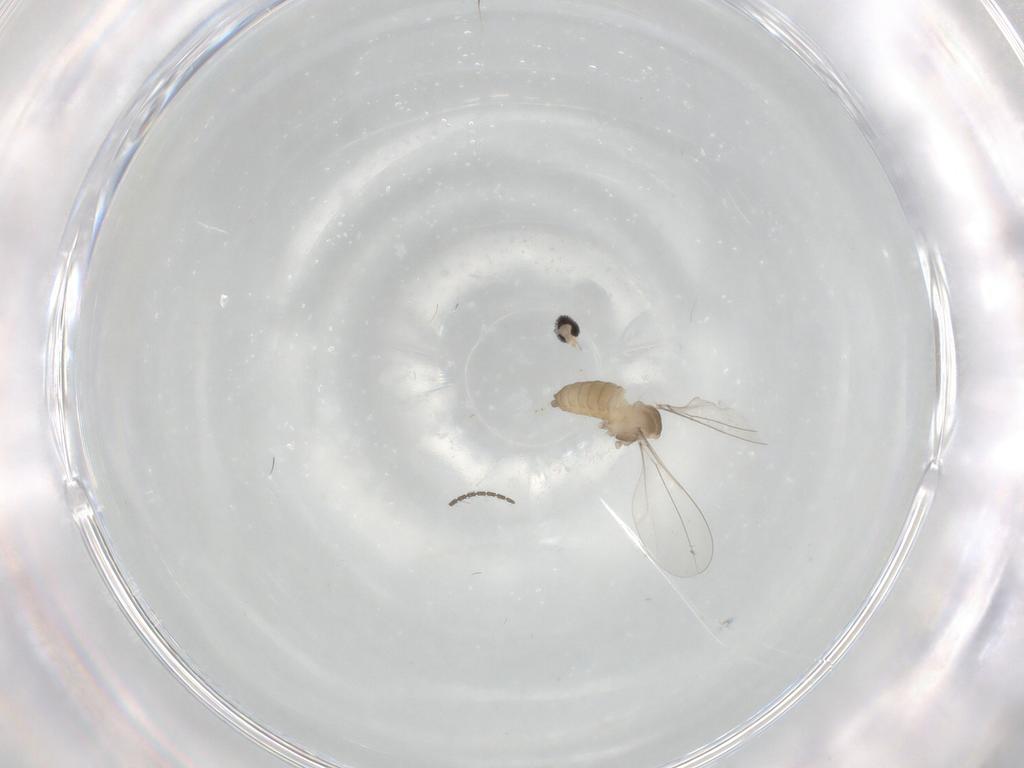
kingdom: Animalia
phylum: Arthropoda
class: Insecta
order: Diptera
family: Cecidomyiidae
